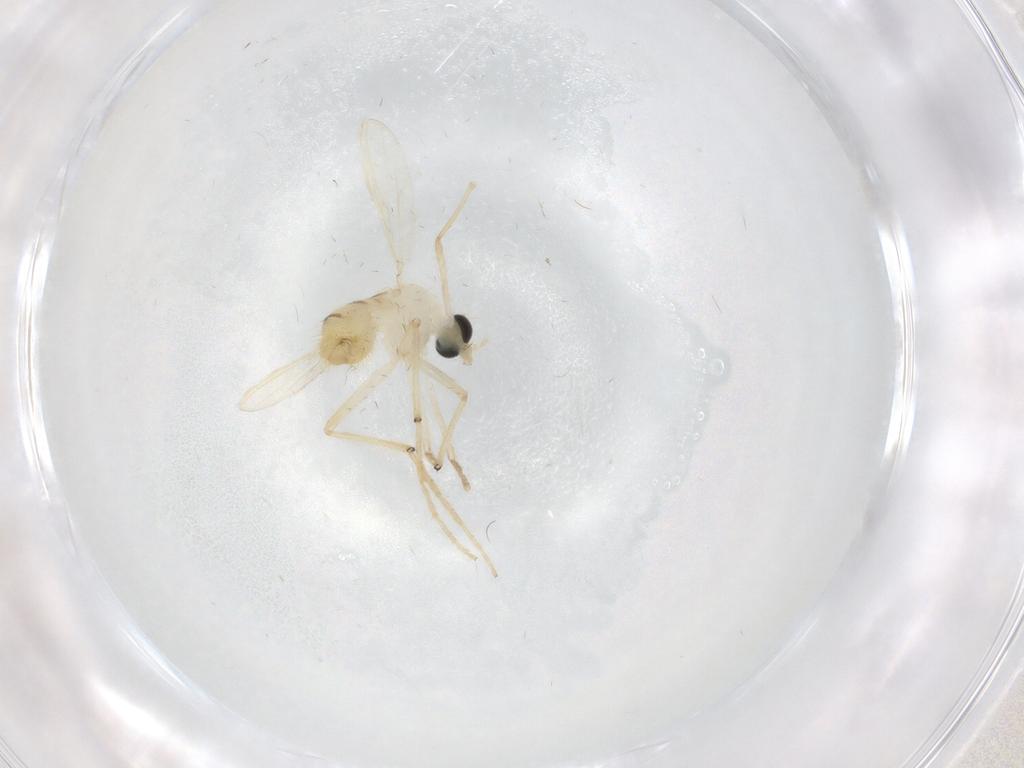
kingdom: Animalia
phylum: Arthropoda
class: Insecta
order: Diptera
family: Chironomidae
